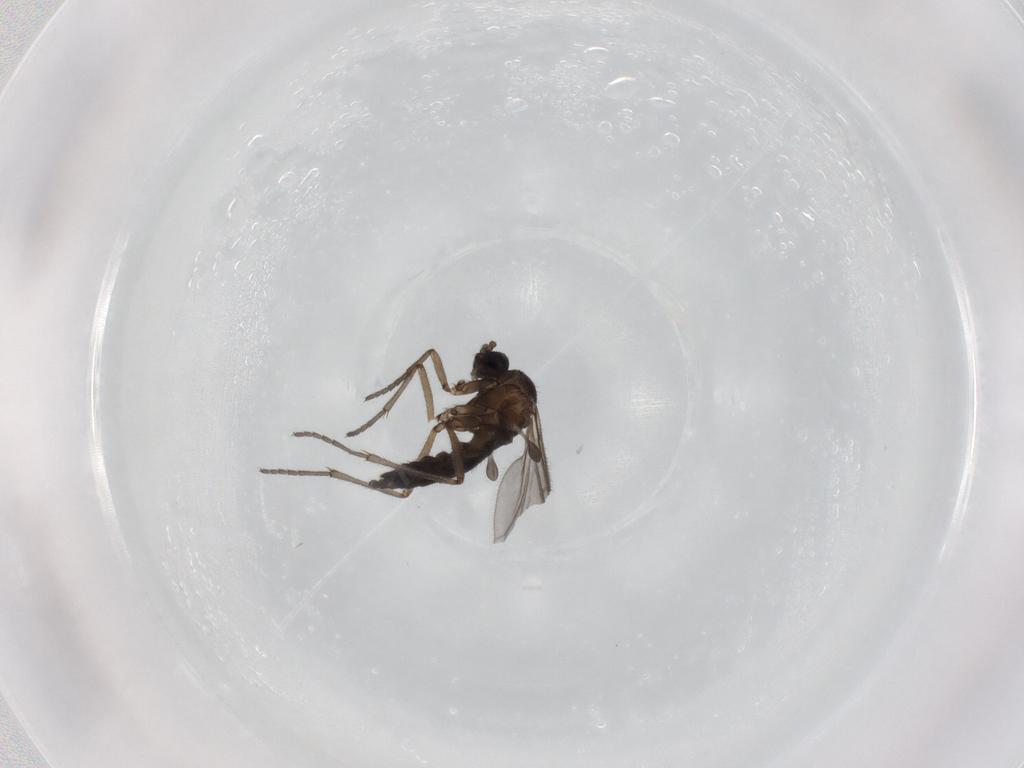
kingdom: Animalia
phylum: Arthropoda
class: Insecta
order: Diptera
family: Sciaridae
